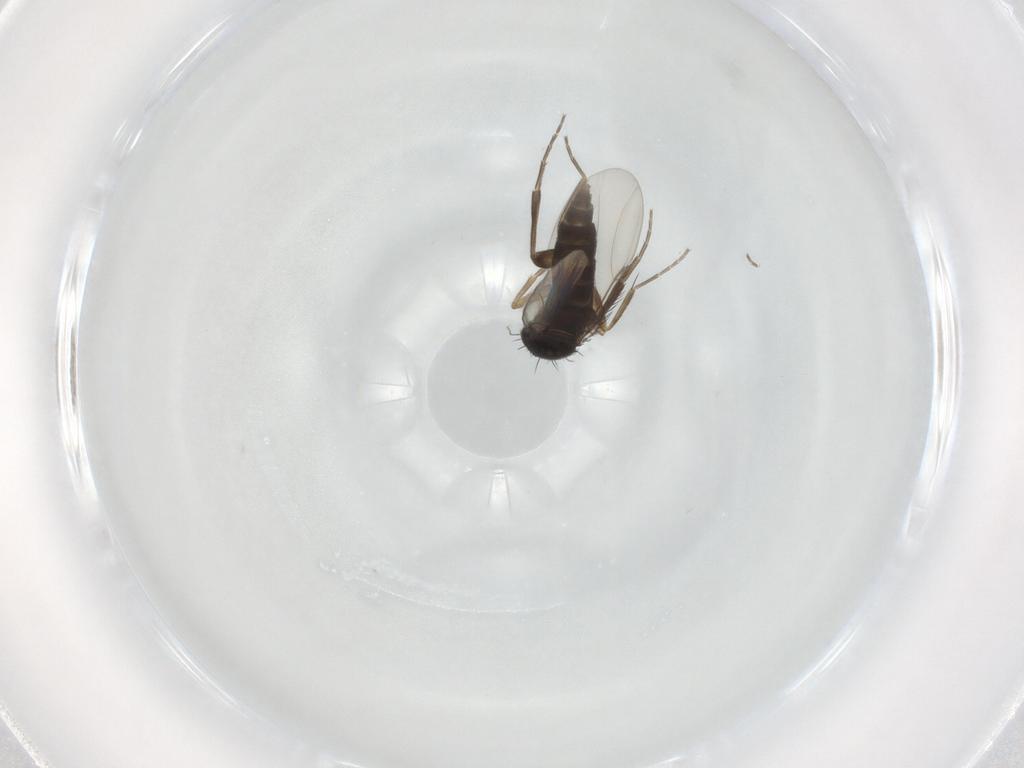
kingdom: Animalia
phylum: Arthropoda
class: Insecta
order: Diptera
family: Phoridae
